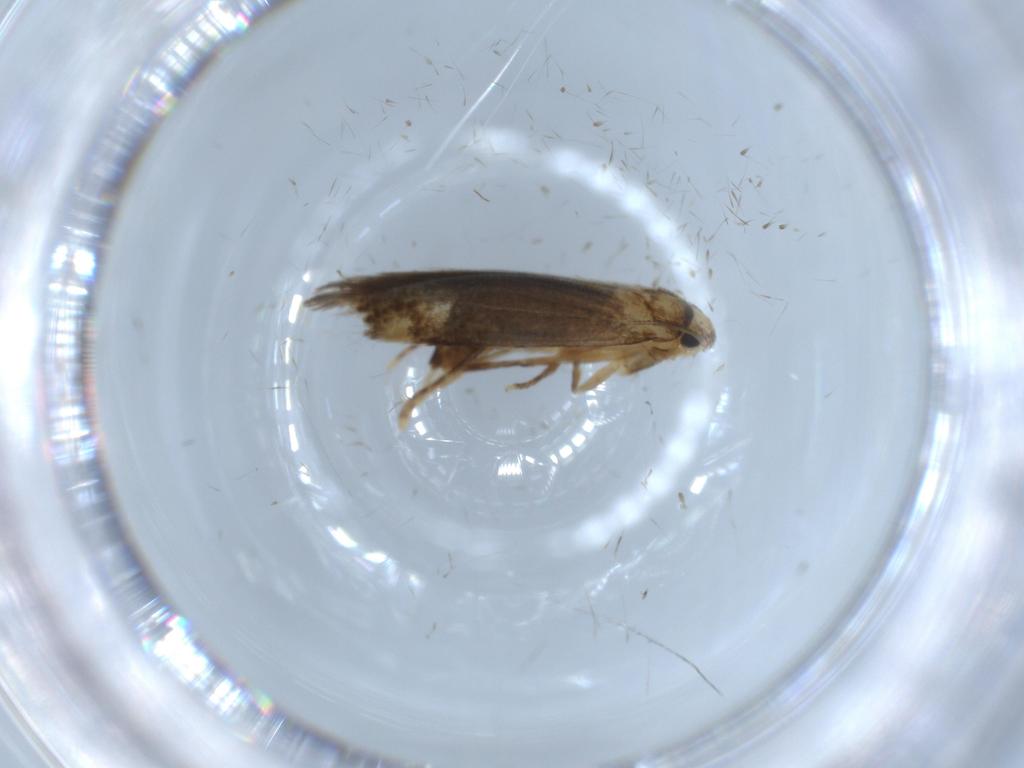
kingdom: Animalia
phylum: Arthropoda
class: Insecta
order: Lepidoptera
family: Tineidae
